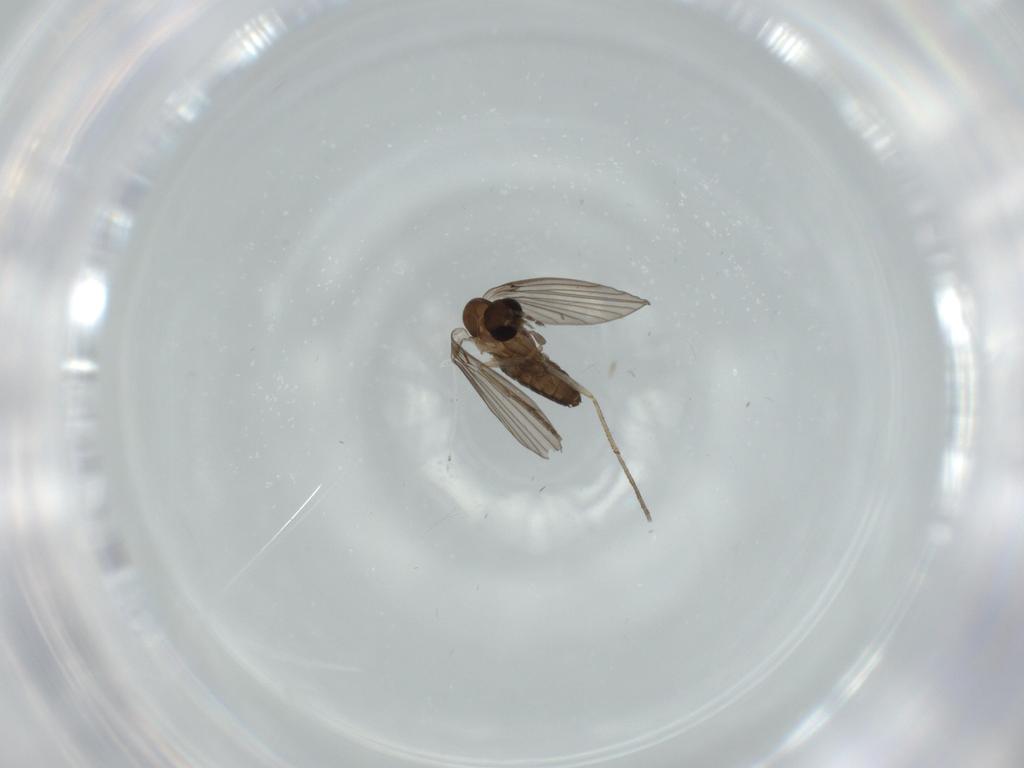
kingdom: Animalia
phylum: Arthropoda
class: Insecta
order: Diptera
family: Psychodidae
